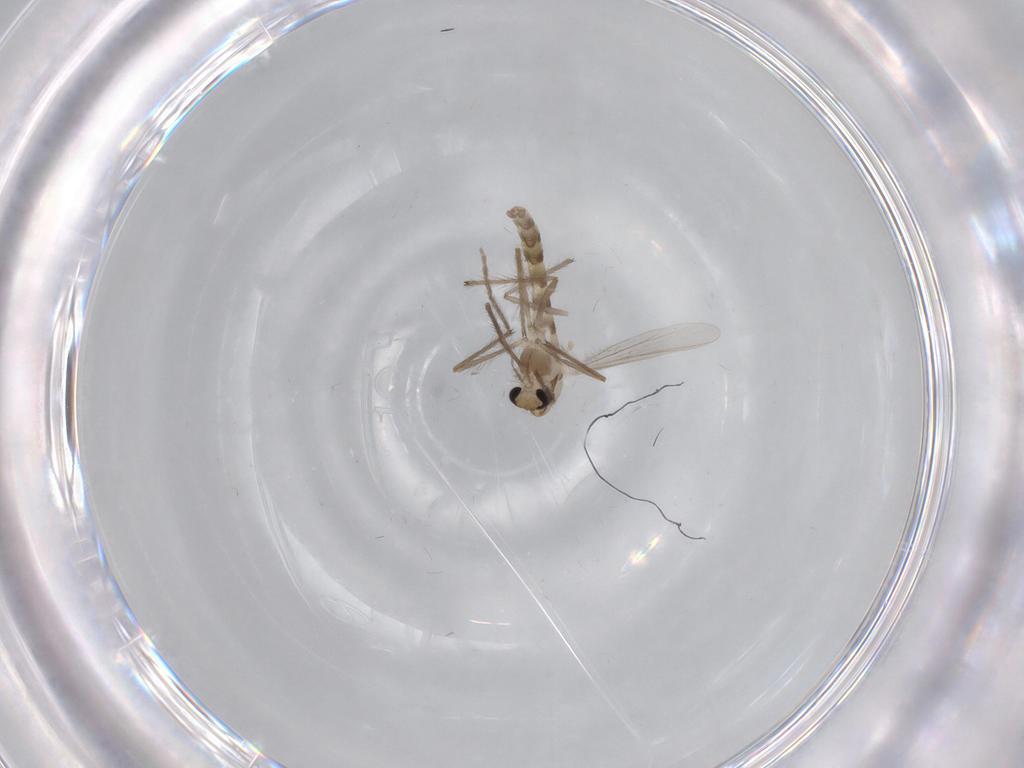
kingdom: Animalia
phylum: Arthropoda
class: Insecta
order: Diptera
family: Chironomidae
